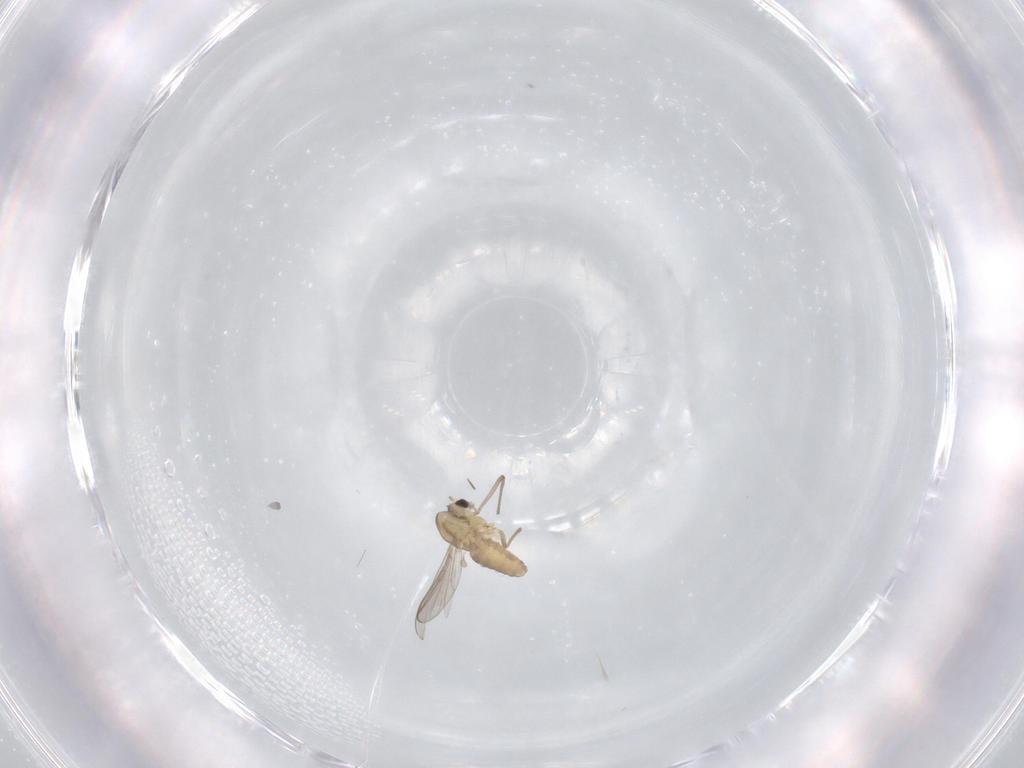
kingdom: Animalia
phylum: Arthropoda
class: Insecta
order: Diptera
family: Chironomidae
